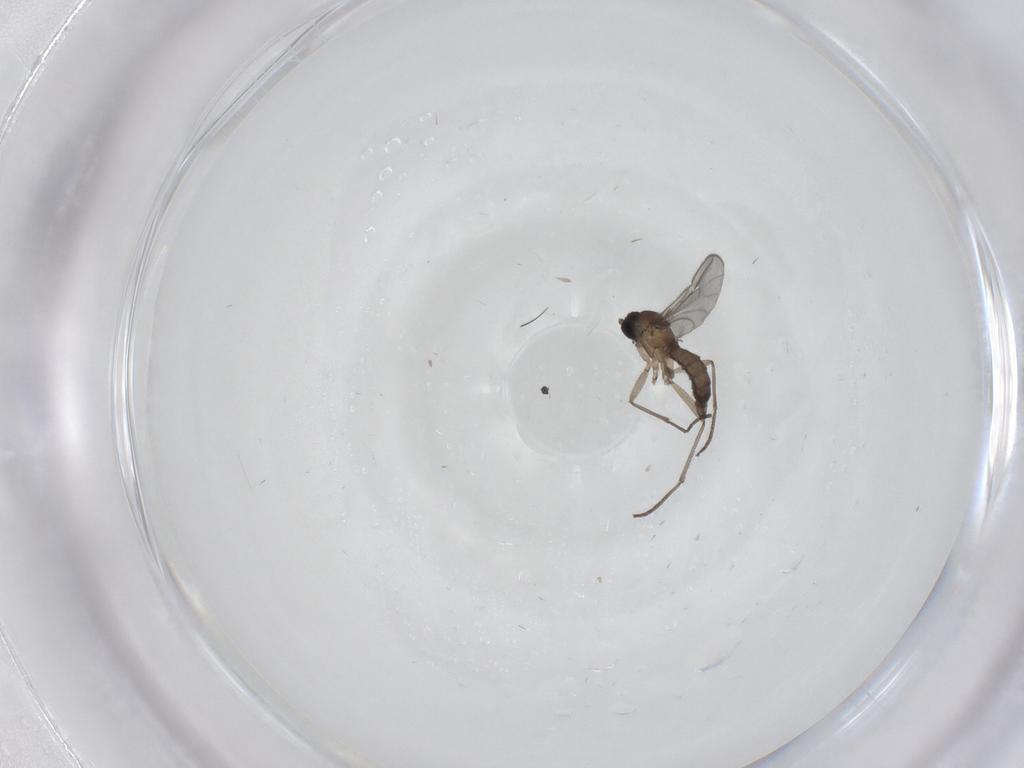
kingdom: Animalia
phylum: Arthropoda
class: Insecta
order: Diptera
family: Sciaridae
